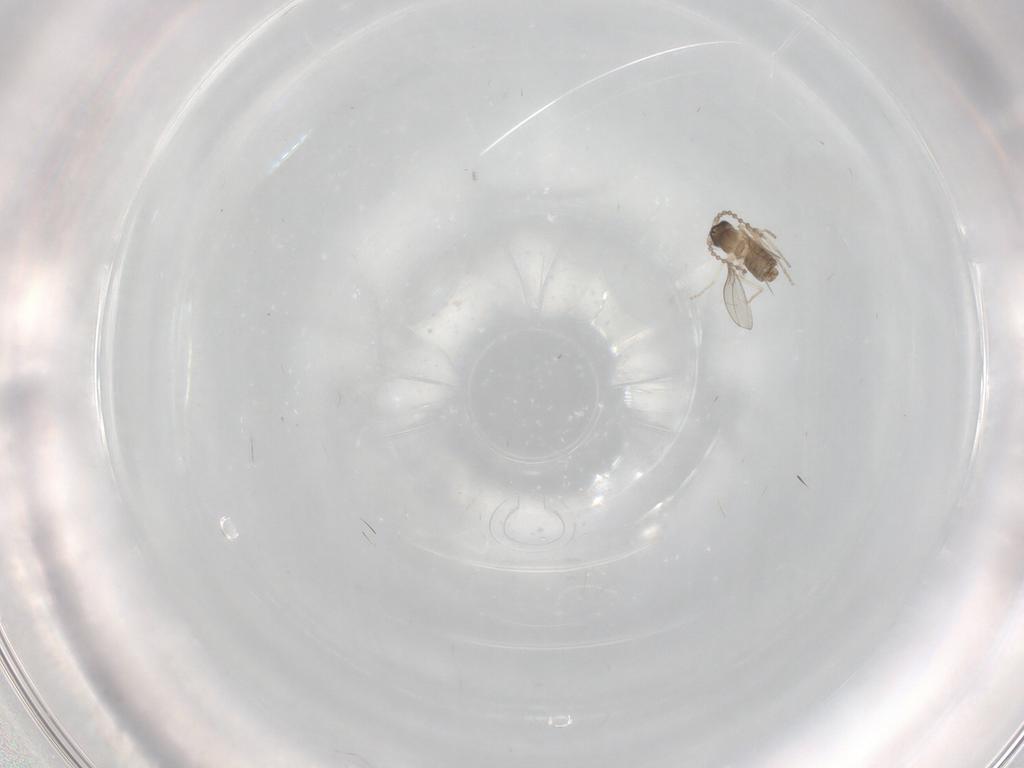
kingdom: Animalia
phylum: Arthropoda
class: Insecta
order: Diptera
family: Cecidomyiidae
